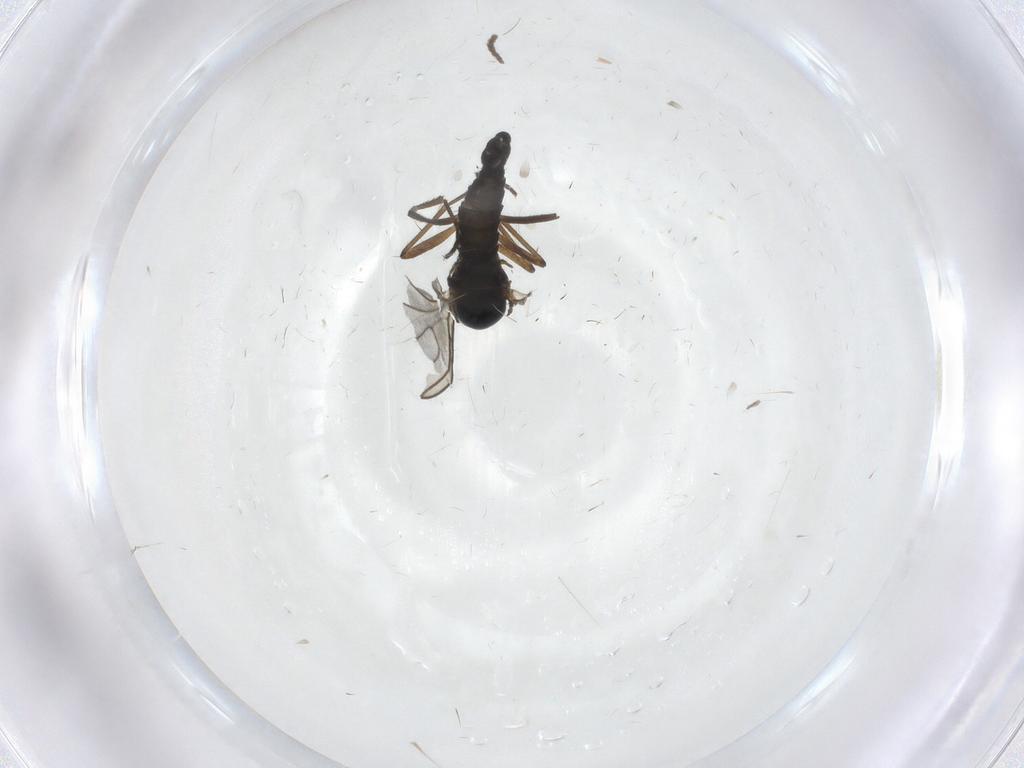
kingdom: Animalia
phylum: Arthropoda
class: Insecta
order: Diptera
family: Sciaridae
